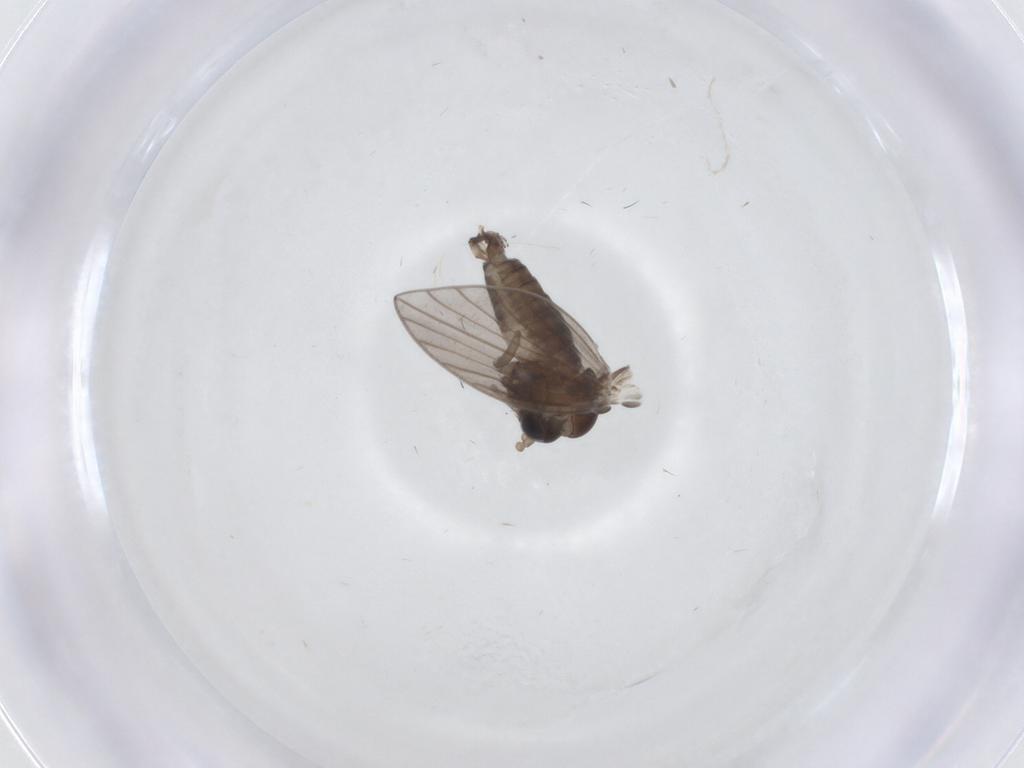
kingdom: Animalia
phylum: Arthropoda
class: Insecta
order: Diptera
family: Psychodidae
